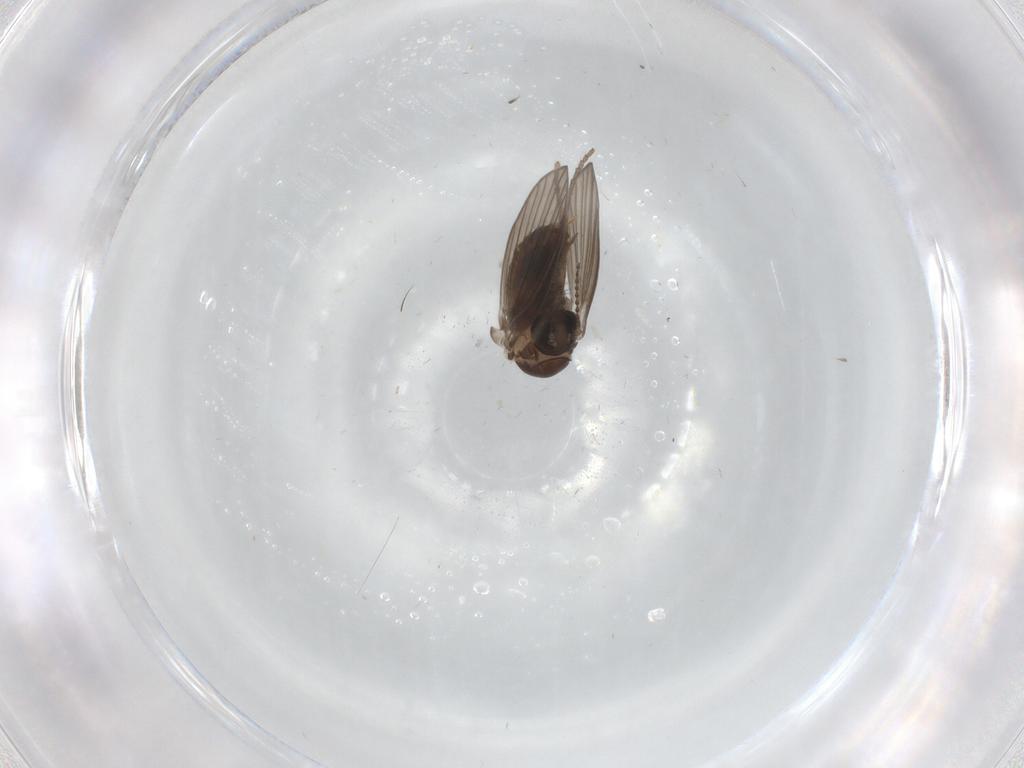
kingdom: Animalia
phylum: Arthropoda
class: Insecta
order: Diptera
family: Psychodidae
